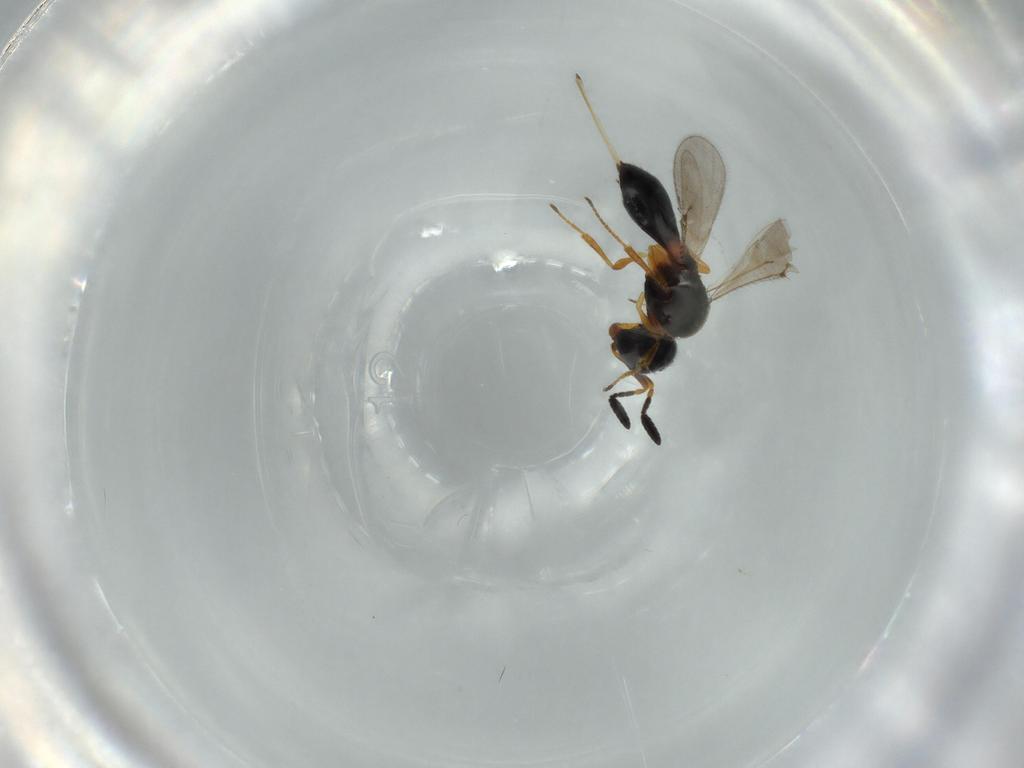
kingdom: Animalia
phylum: Arthropoda
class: Insecta
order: Hymenoptera
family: Scelionidae
